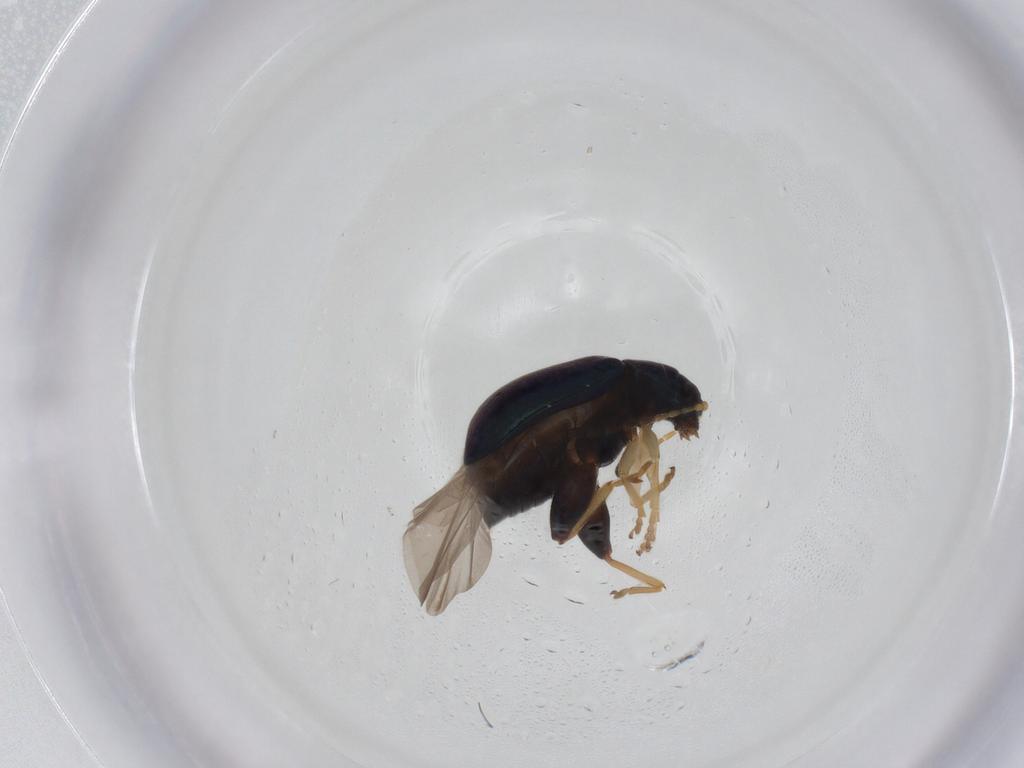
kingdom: Animalia
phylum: Arthropoda
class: Insecta
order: Coleoptera
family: Chrysomelidae
